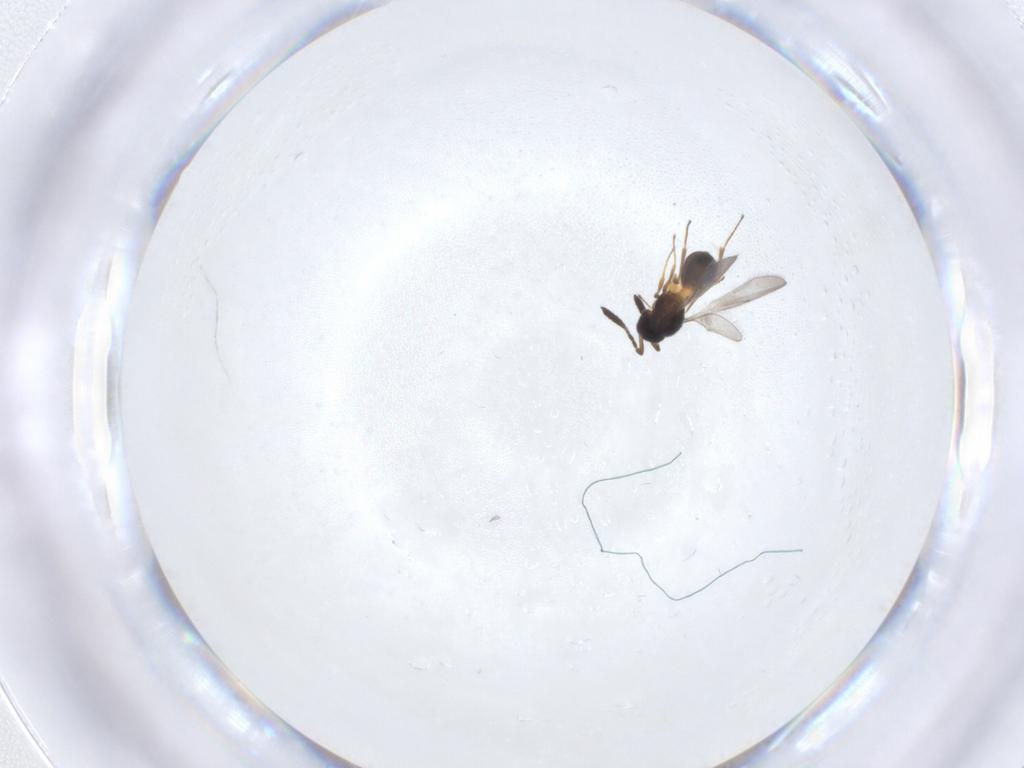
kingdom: Animalia
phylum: Arthropoda
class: Insecta
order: Hymenoptera
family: Scelionidae
